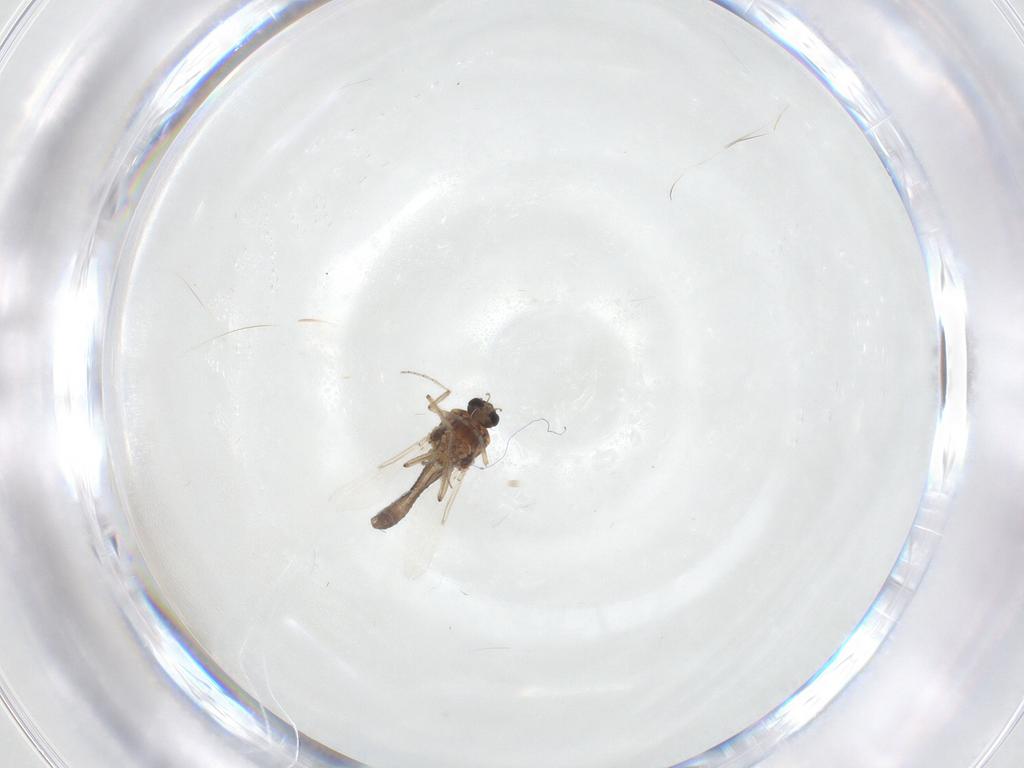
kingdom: Animalia
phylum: Arthropoda
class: Insecta
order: Diptera
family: Ceratopogonidae
